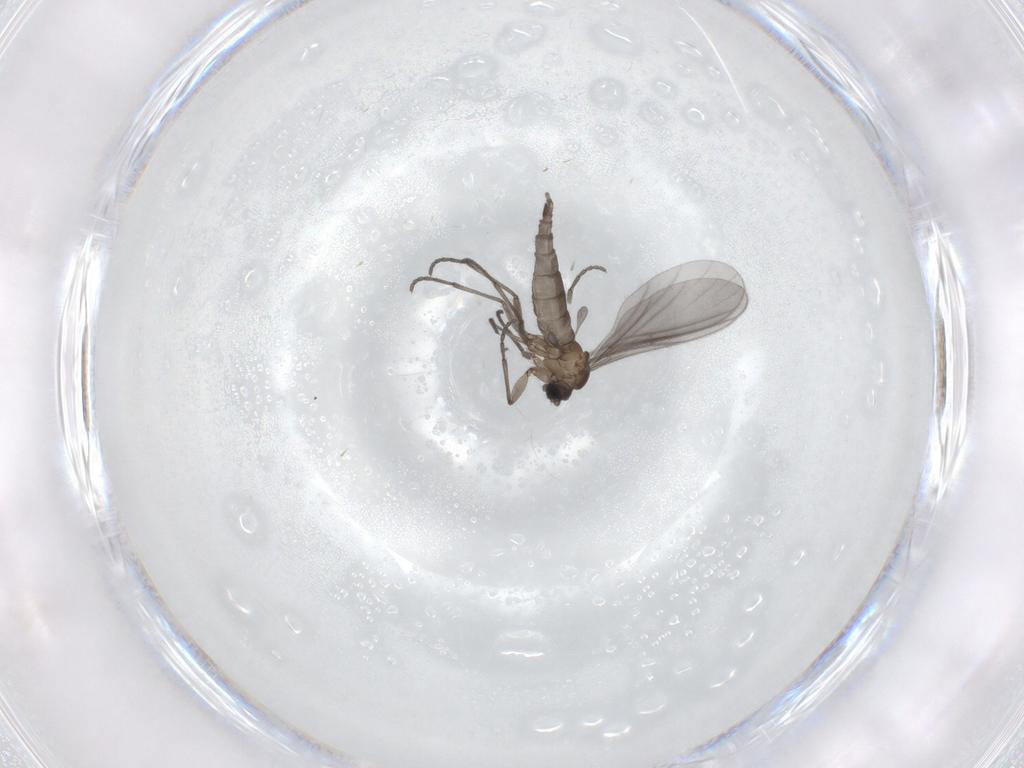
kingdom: Animalia
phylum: Arthropoda
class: Insecta
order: Diptera
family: Sciaridae
